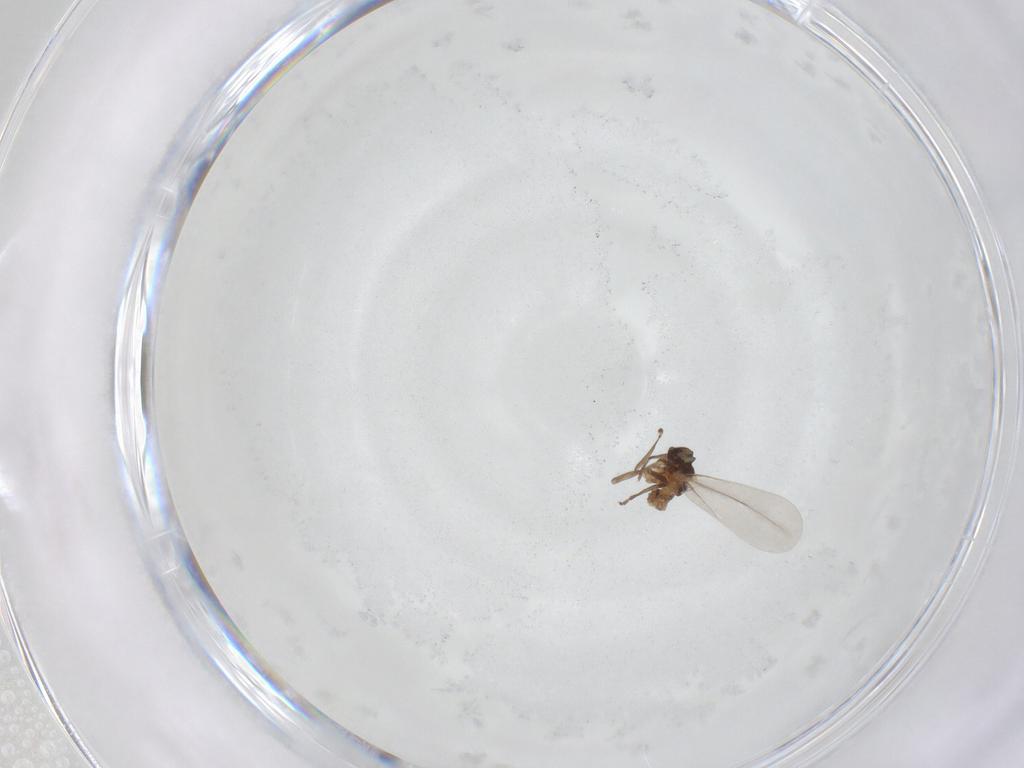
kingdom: Animalia
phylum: Arthropoda
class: Insecta
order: Hemiptera
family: Aleyrodidae
